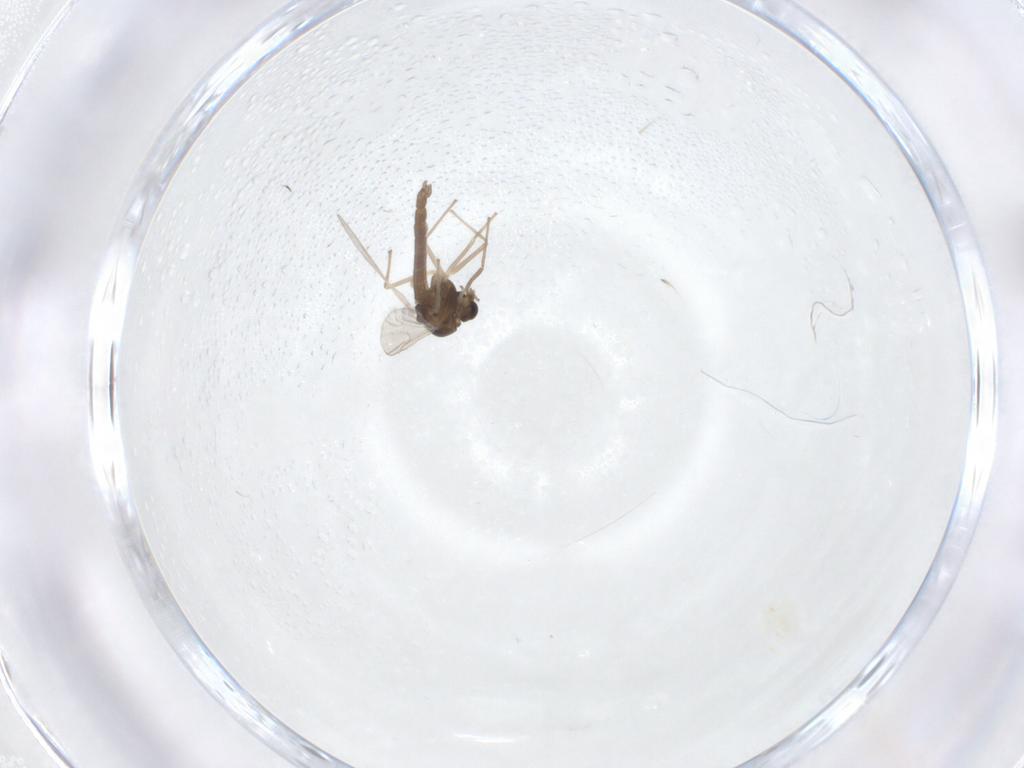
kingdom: Animalia
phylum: Arthropoda
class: Insecta
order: Diptera
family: Chironomidae
